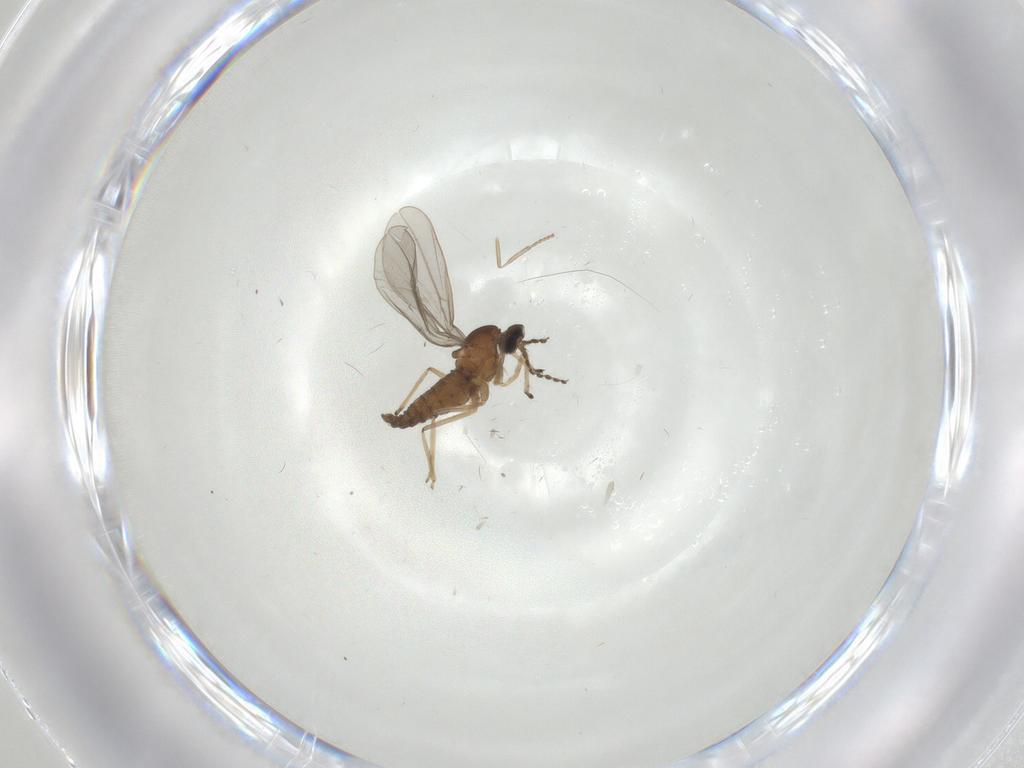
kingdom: Animalia
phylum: Arthropoda
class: Insecta
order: Diptera
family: Cecidomyiidae
